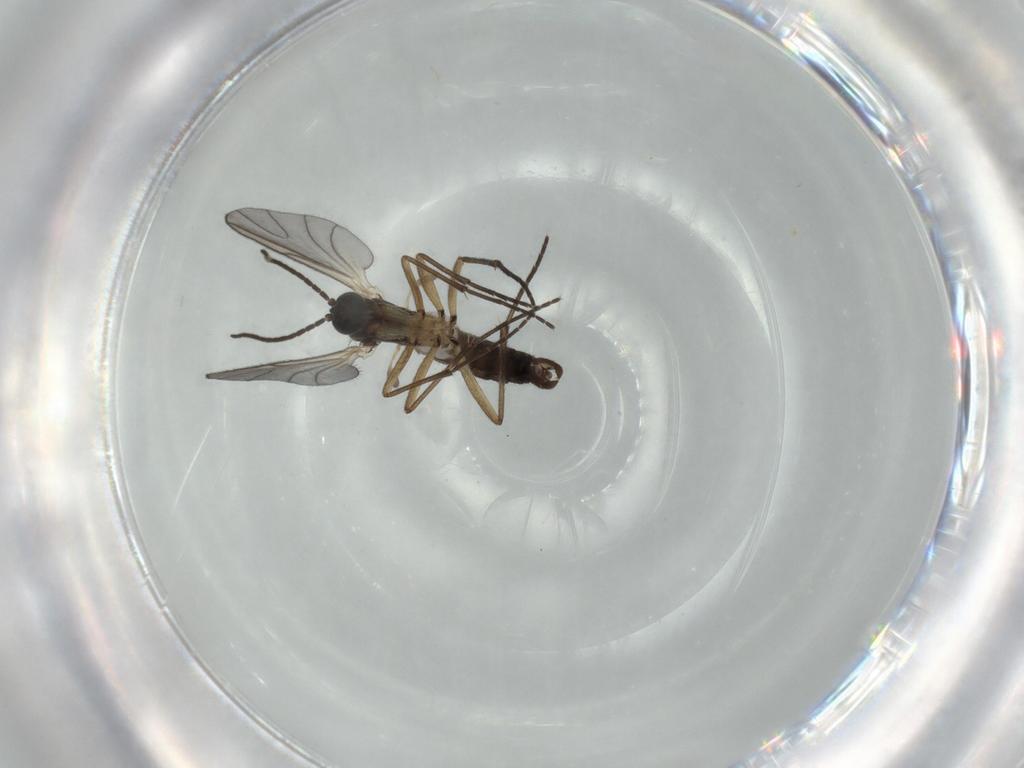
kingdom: Animalia
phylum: Arthropoda
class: Insecta
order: Diptera
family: Sciaridae
